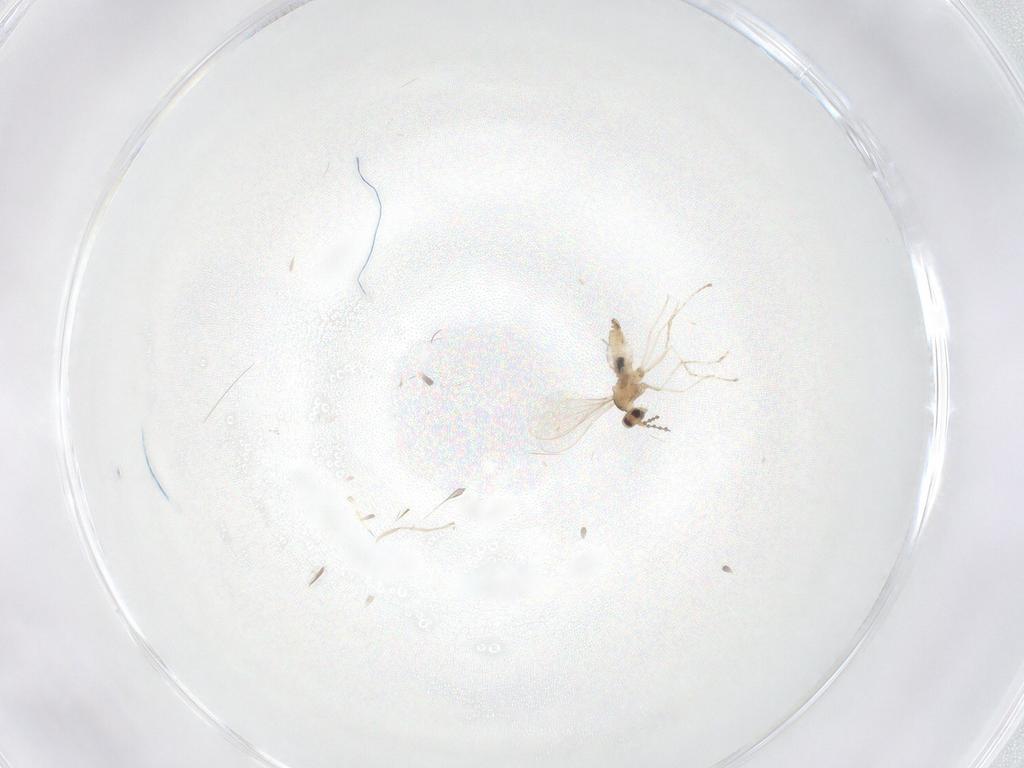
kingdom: Animalia
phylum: Arthropoda
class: Insecta
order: Diptera
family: Cecidomyiidae
